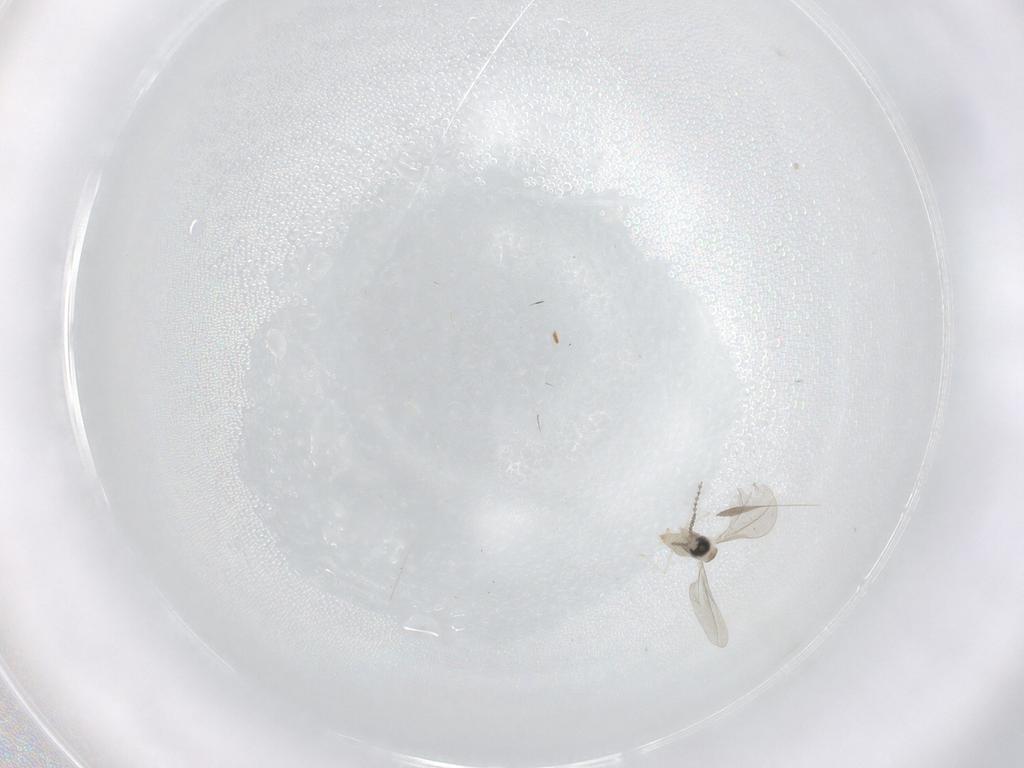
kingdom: Animalia
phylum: Arthropoda
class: Insecta
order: Diptera
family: Cecidomyiidae
